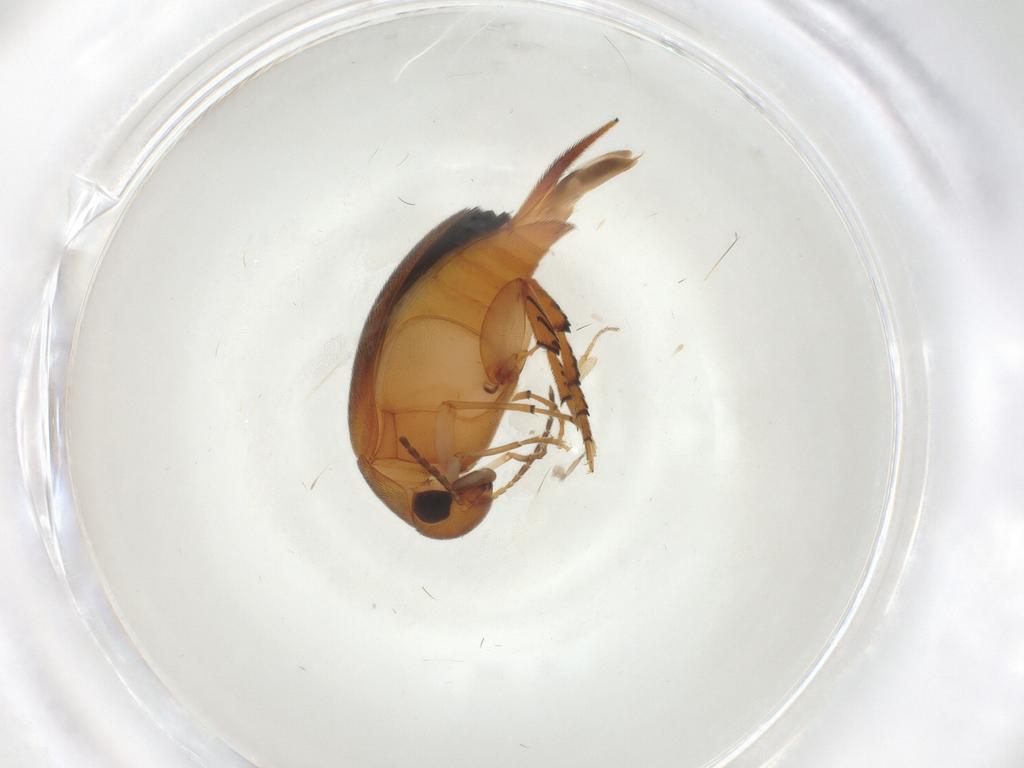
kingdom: Animalia
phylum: Arthropoda
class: Insecta
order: Coleoptera
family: Mordellidae
